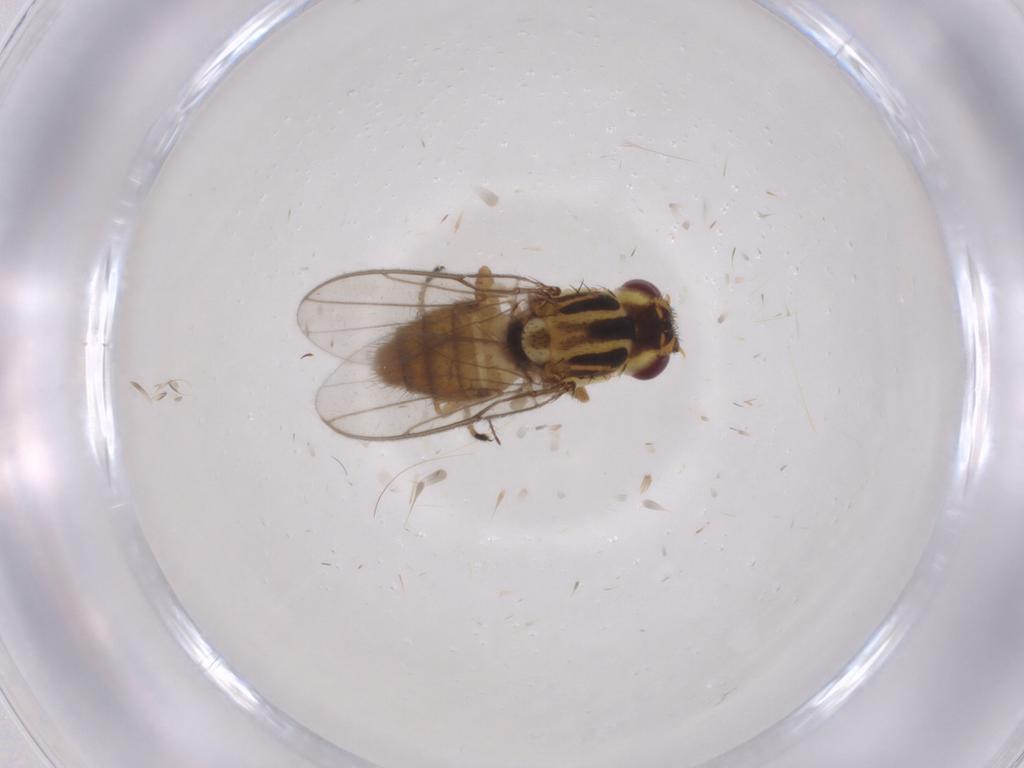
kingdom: Animalia
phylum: Arthropoda
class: Insecta
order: Diptera
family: Chloropidae
